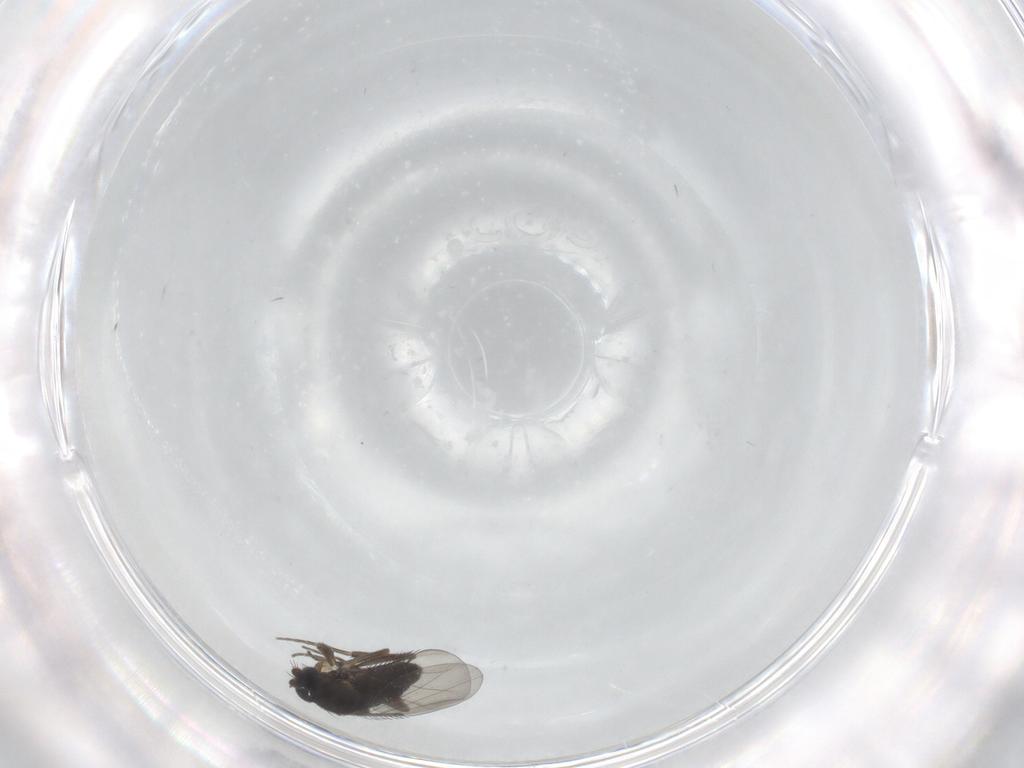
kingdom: Animalia
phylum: Arthropoda
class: Insecta
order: Diptera
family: Phoridae
